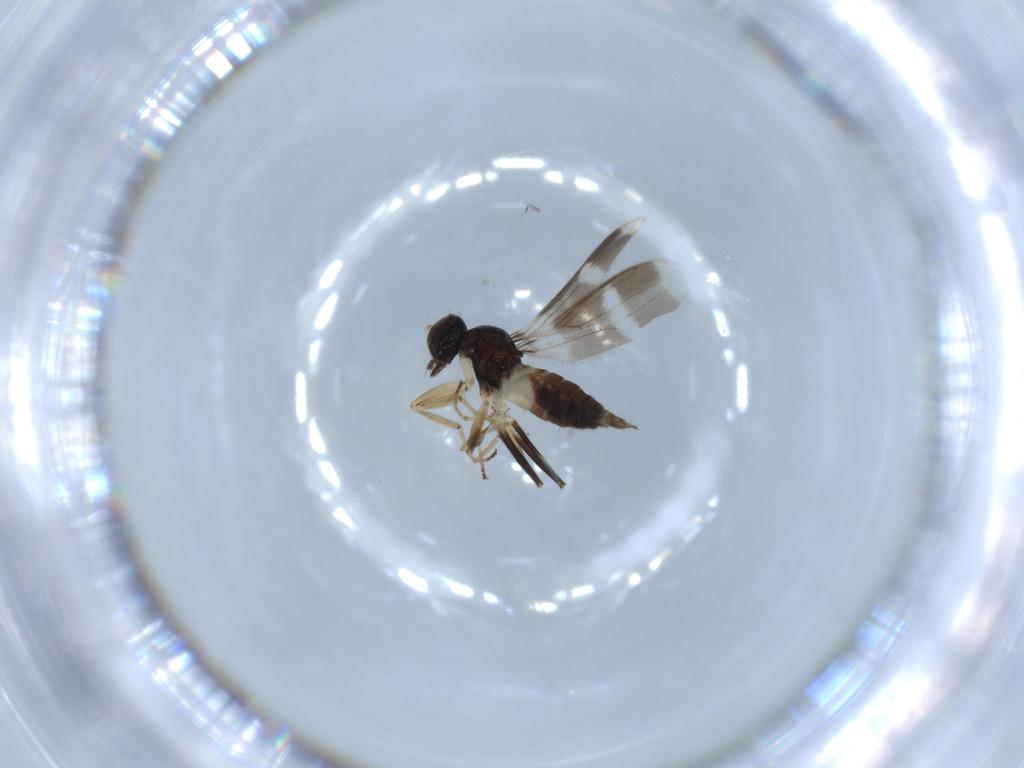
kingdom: Animalia
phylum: Arthropoda
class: Insecta
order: Diptera
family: Hybotidae
